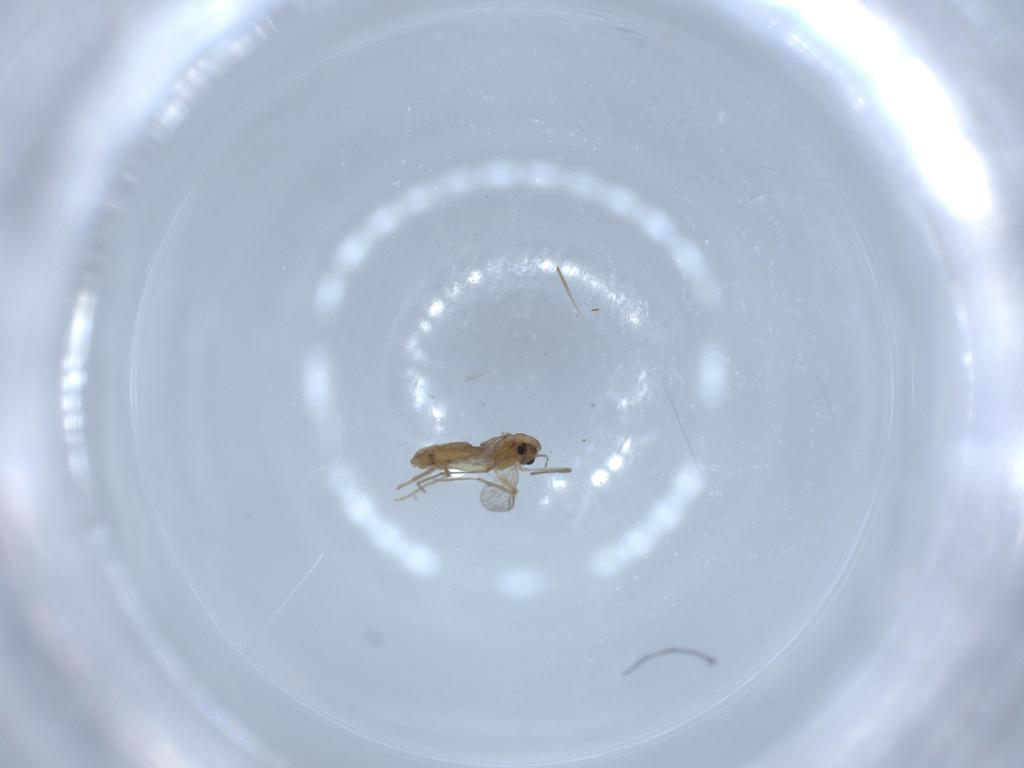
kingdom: Animalia
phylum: Arthropoda
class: Insecta
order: Diptera
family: Chironomidae
